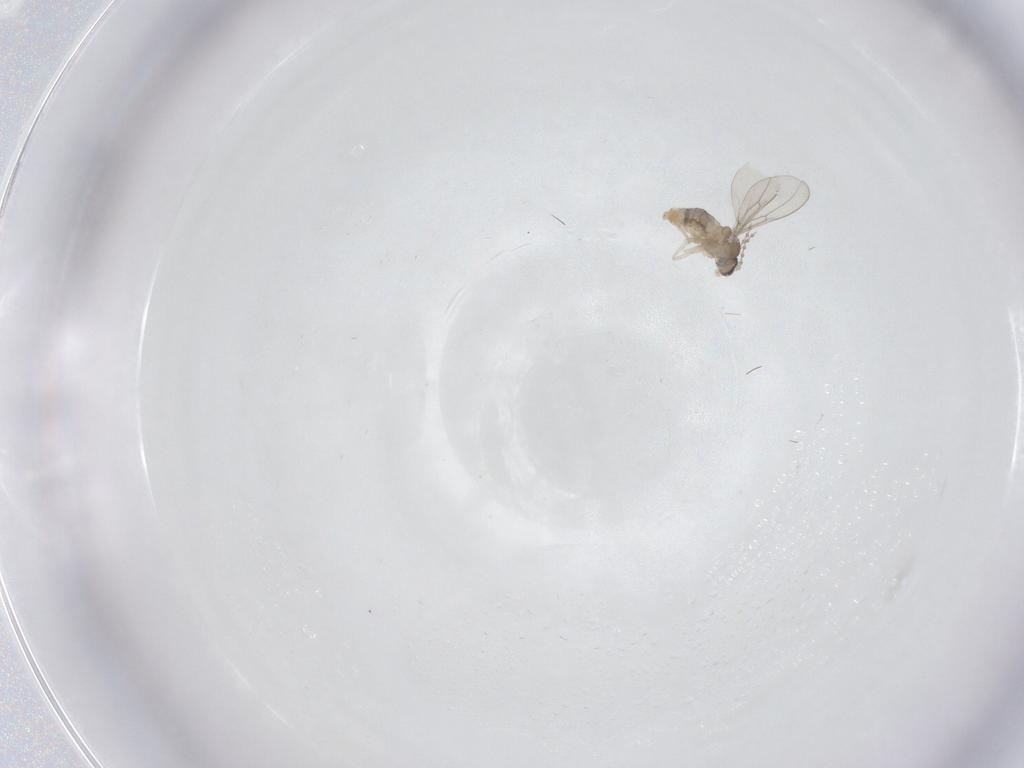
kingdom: Animalia
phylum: Arthropoda
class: Insecta
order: Diptera
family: Sciaridae
